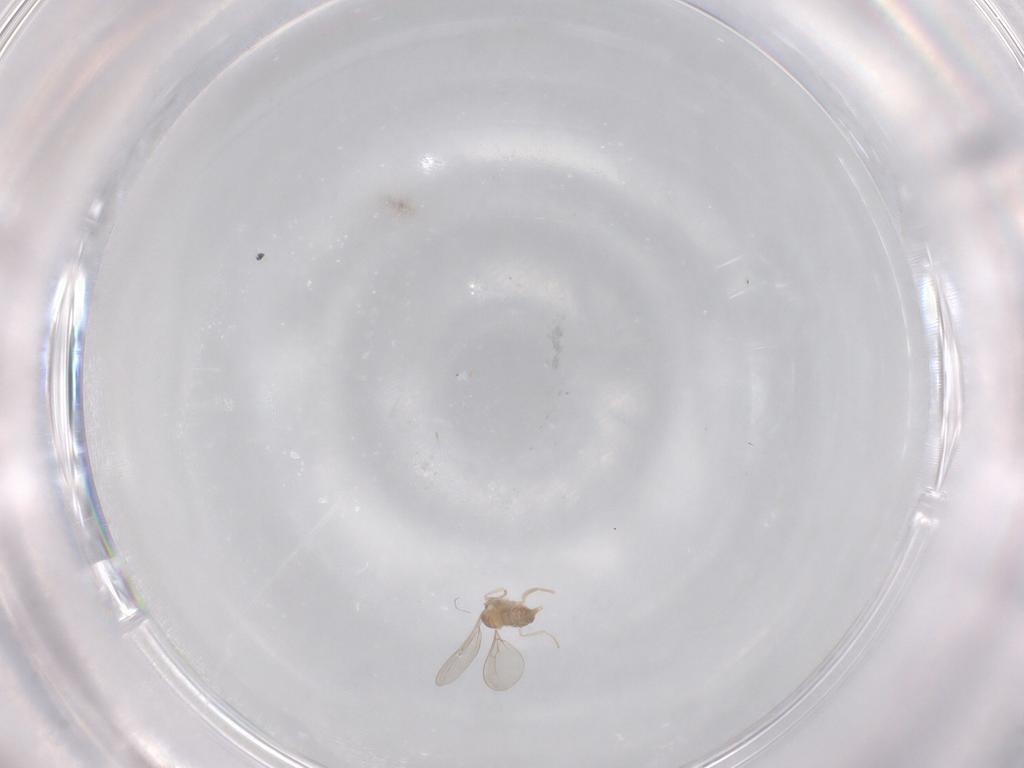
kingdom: Animalia
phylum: Arthropoda
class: Insecta
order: Diptera
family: Cecidomyiidae
